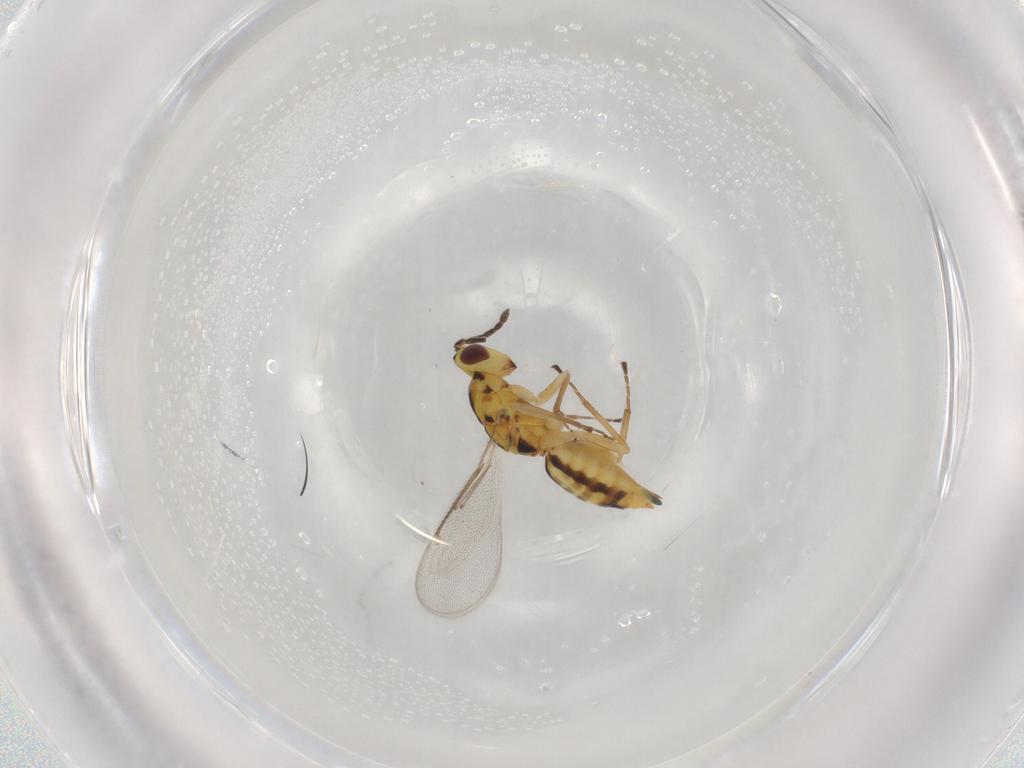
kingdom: Animalia
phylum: Arthropoda
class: Insecta
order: Hymenoptera
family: Eulophidae
